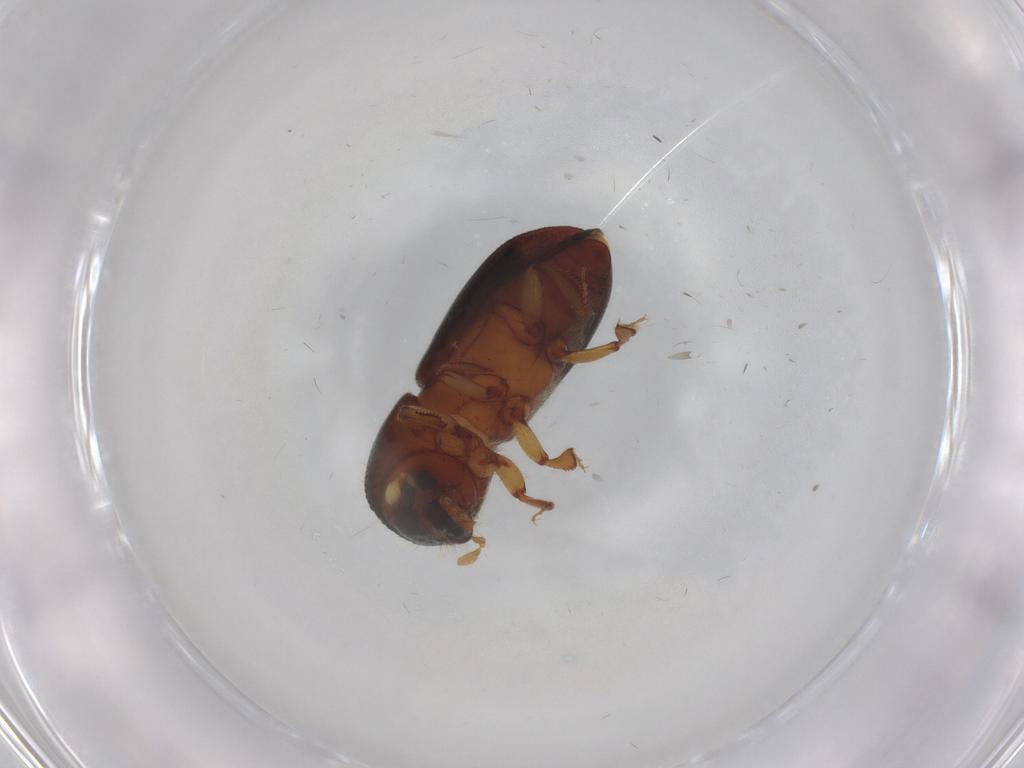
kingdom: Animalia
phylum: Arthropoda
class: Insecta
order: Coleoptera
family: Curculionidae
